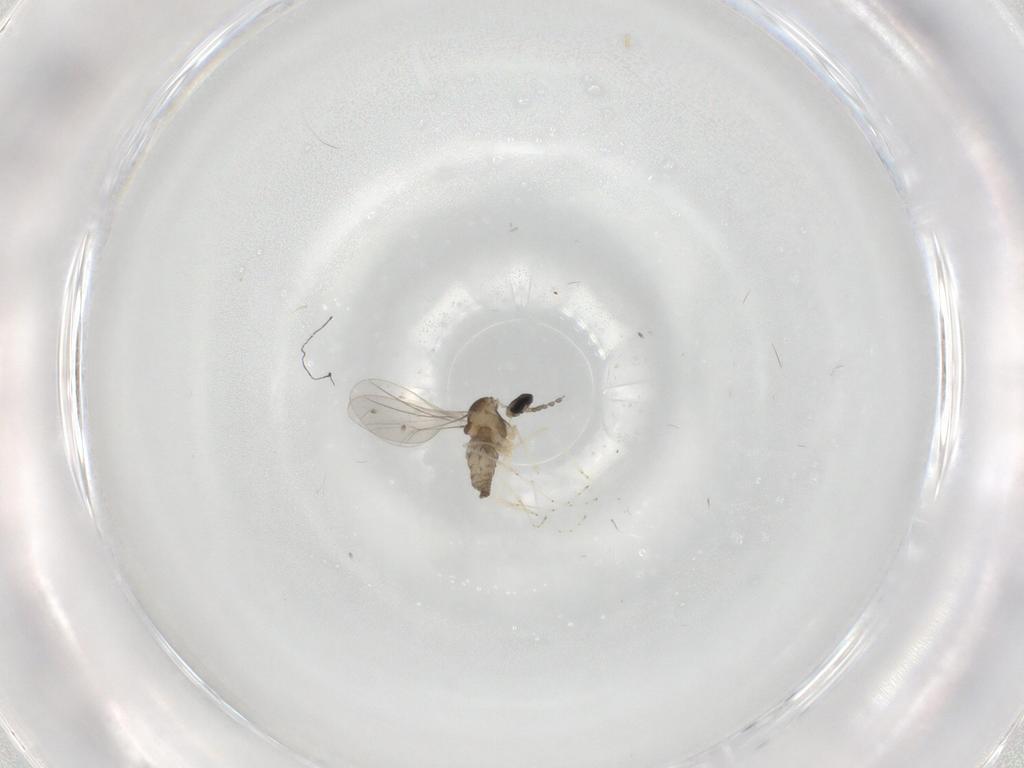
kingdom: Animalia
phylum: Arthropoda
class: Insecta
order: Diptera
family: Cecidomyiidae
